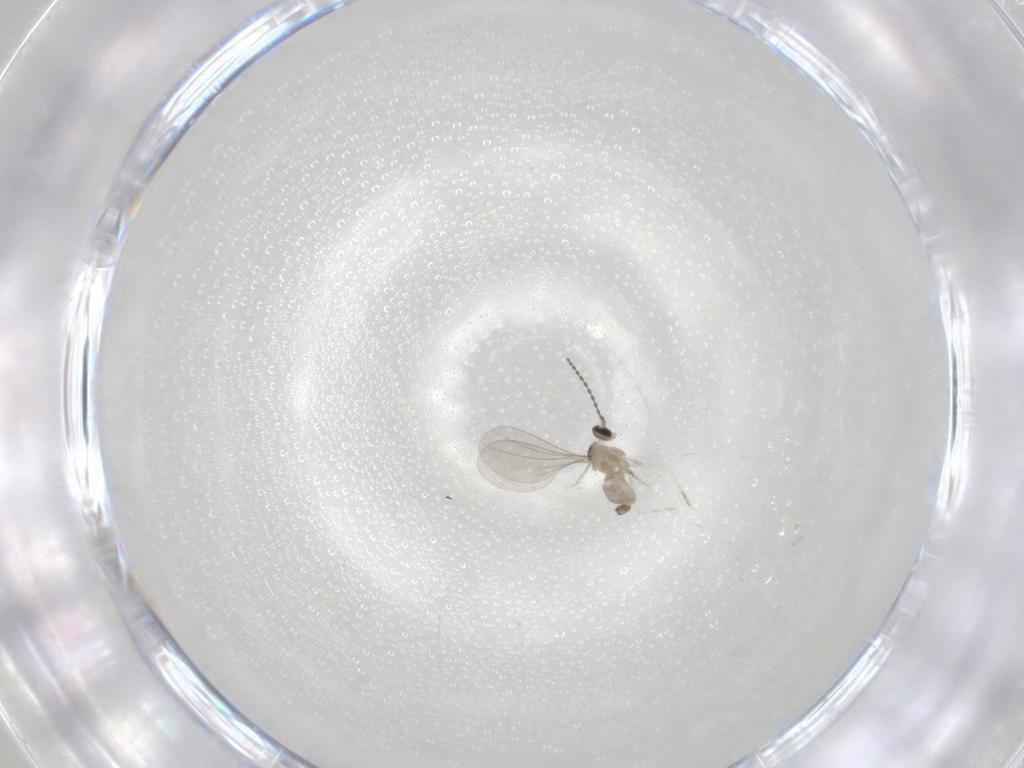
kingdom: Animalia
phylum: Arthropoda
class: Insecta
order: Diptera
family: Cecidomyiidae
